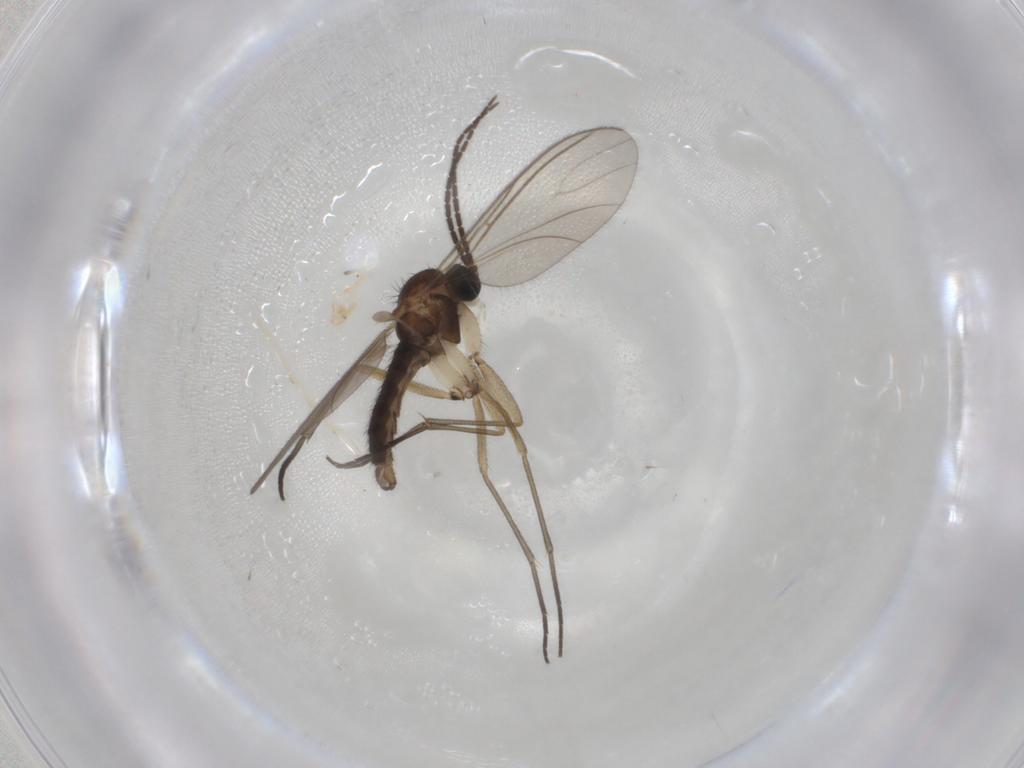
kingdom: Animalia
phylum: Arthropoda
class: Insecta
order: Diptera
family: Sciaridae
